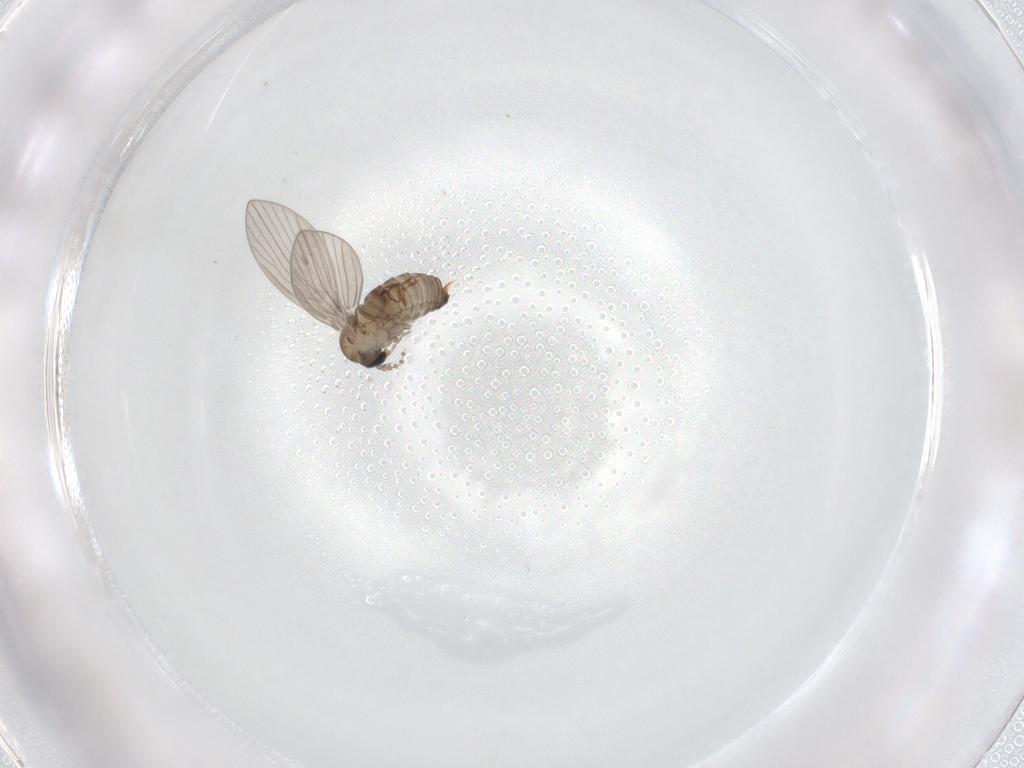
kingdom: Animalia
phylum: Arthropoda
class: Insecta
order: Diptera
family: Psychodidae
